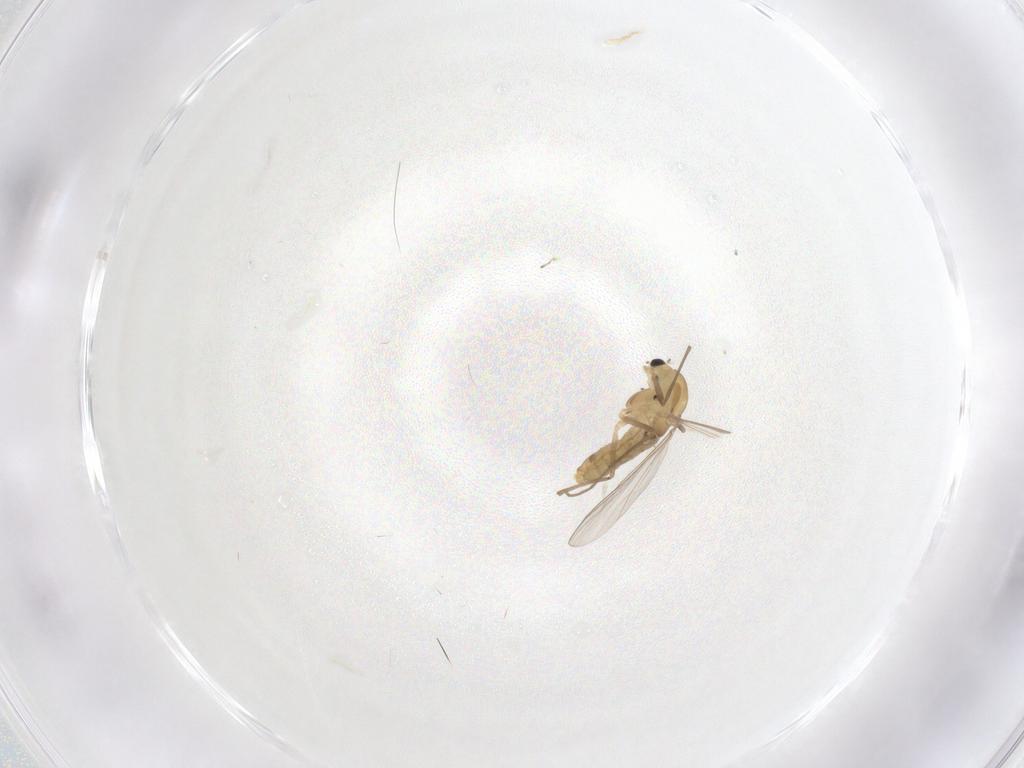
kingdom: Animalia
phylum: Arthropoda
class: Insecta
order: Diptera
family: Chironomidae
